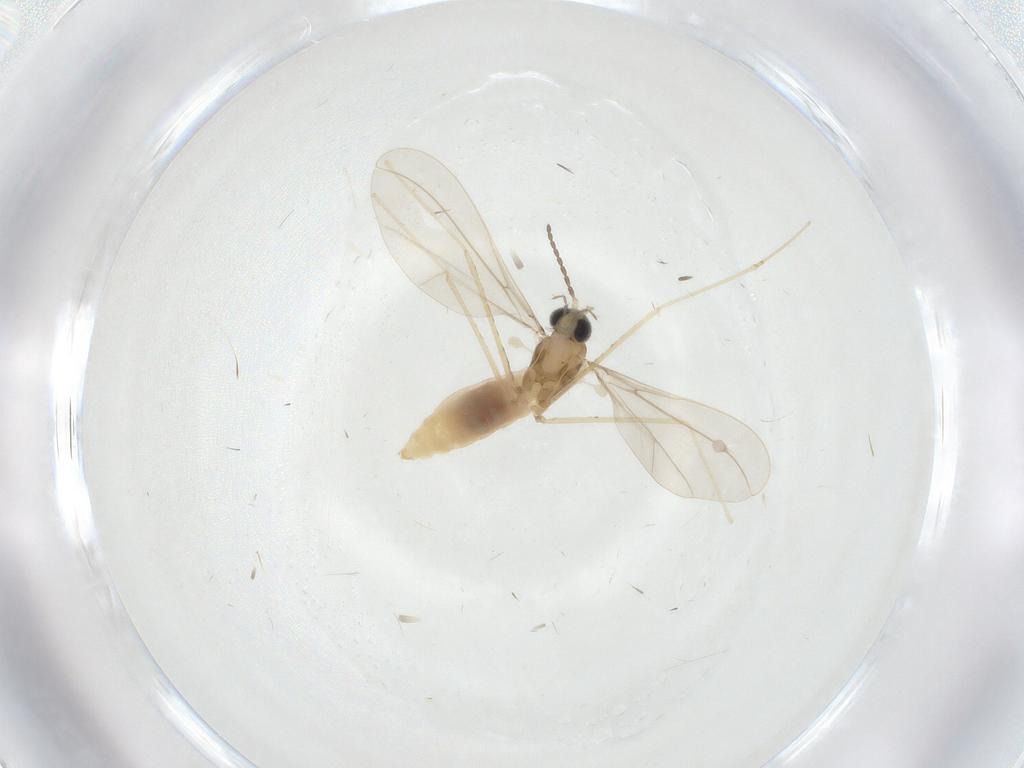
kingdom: Animalia
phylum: Arthropoda
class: Insecta
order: Diptera
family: Cecidomyiidae
